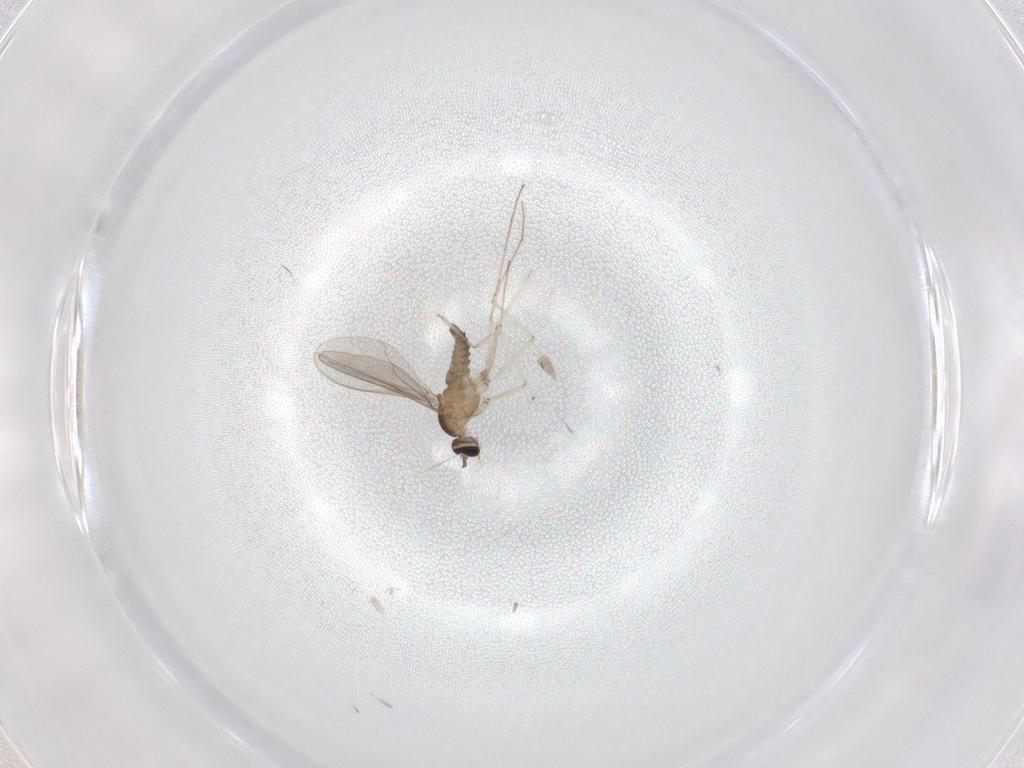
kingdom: Animalia
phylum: Arthropoda
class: Insecta
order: Diptera
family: Cecidomyiidae
